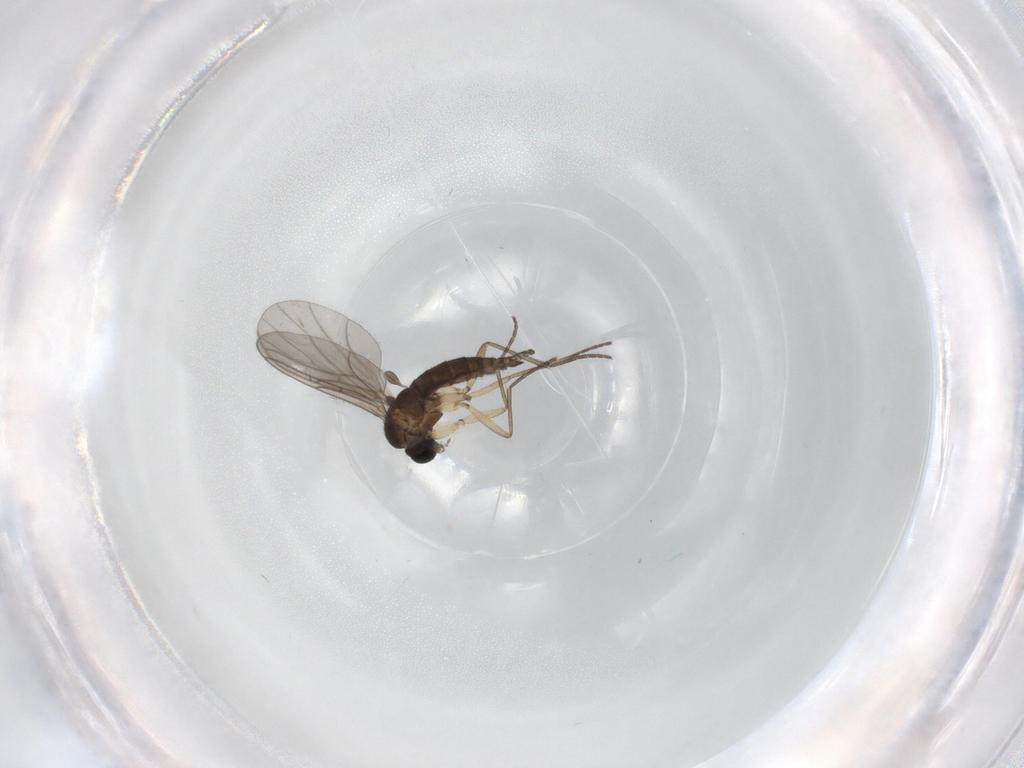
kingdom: Animalia
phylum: Arthropoda
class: Insecta
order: Diptera
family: Sciaridae
